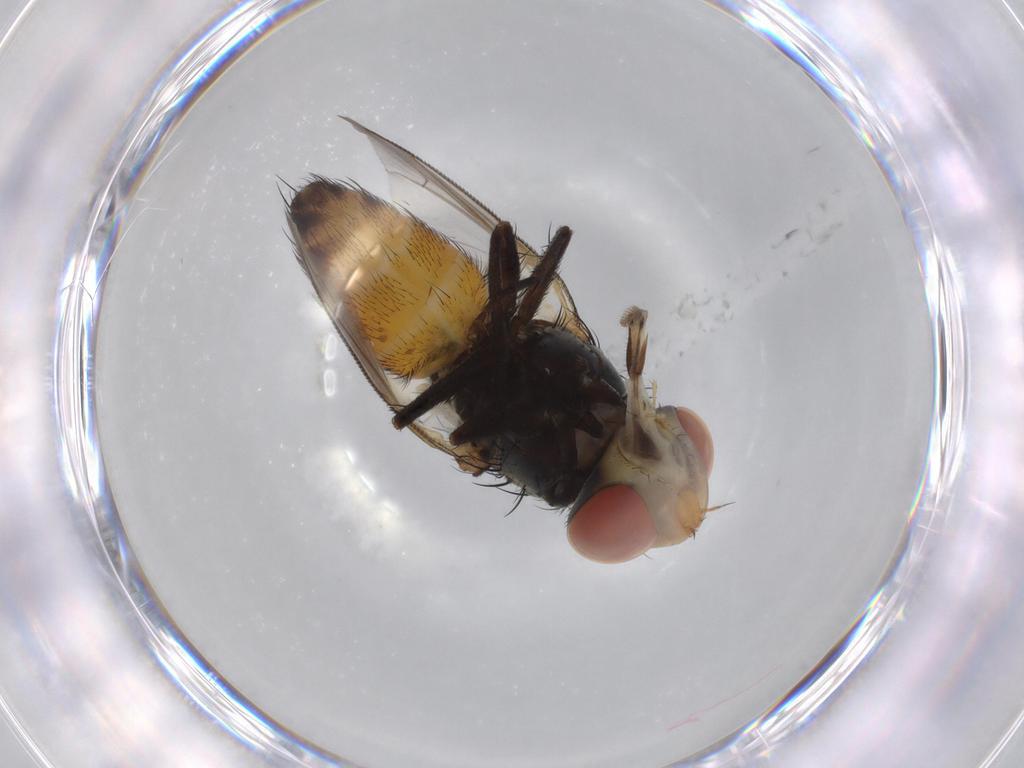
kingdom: Animalia
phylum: Arthropoda
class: Insecta
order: Diptera
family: Sarcophagidae
